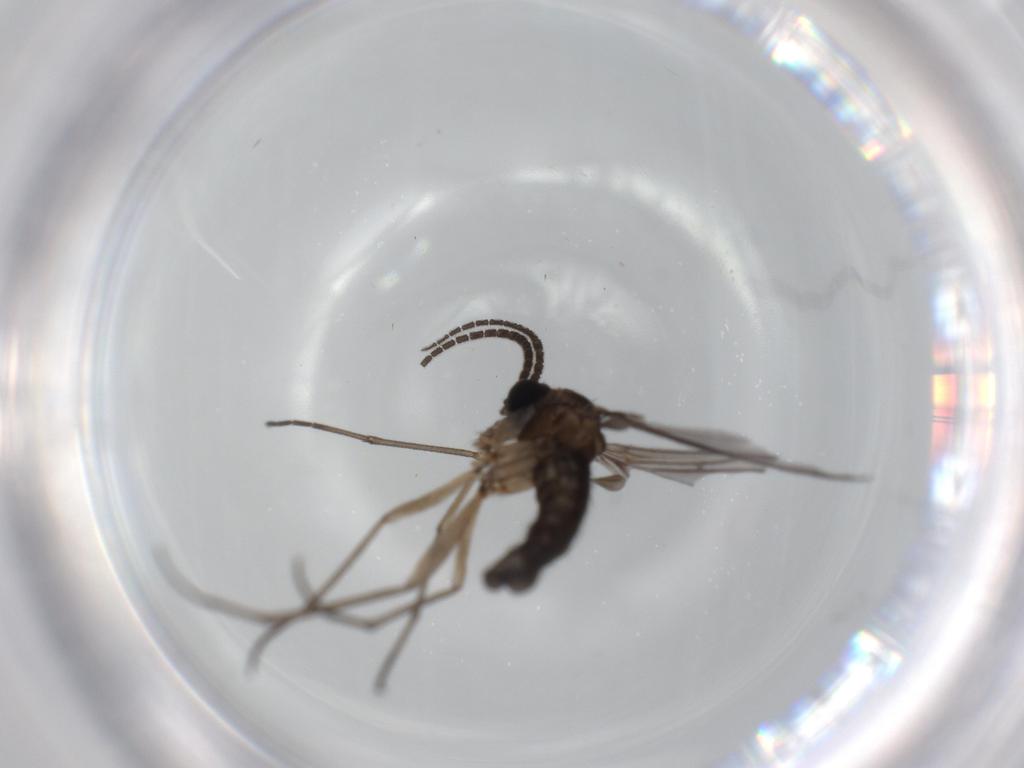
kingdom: Animalia
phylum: Arthropoda
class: Insecta
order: Diptera
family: Sciaridae
